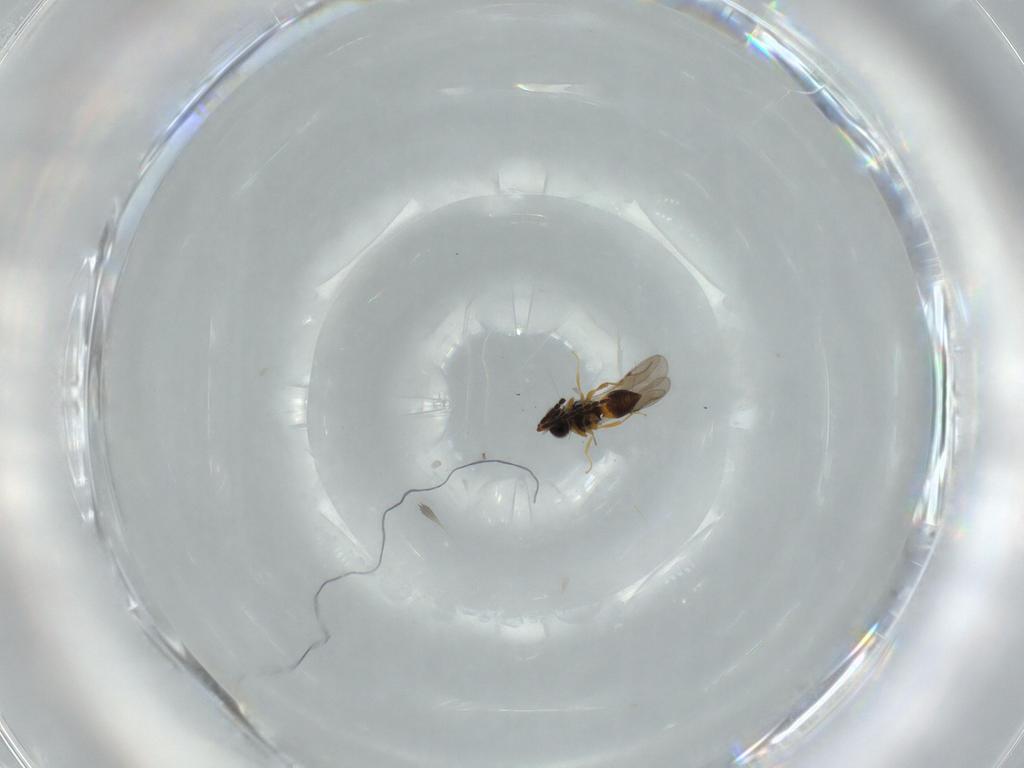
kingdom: Animalia
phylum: Arthropoda
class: Insecta
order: Hymenoptera
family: Scelionidae
